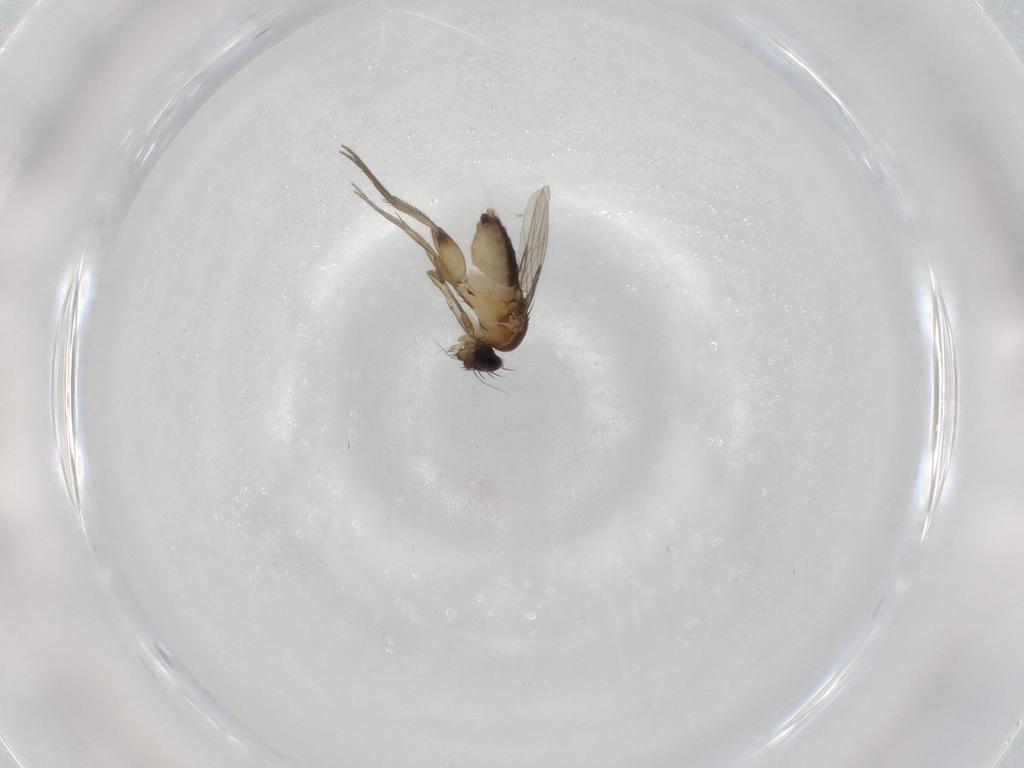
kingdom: Animalia
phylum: Arthropoda
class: Insecta
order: Diptera
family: Phoridae
